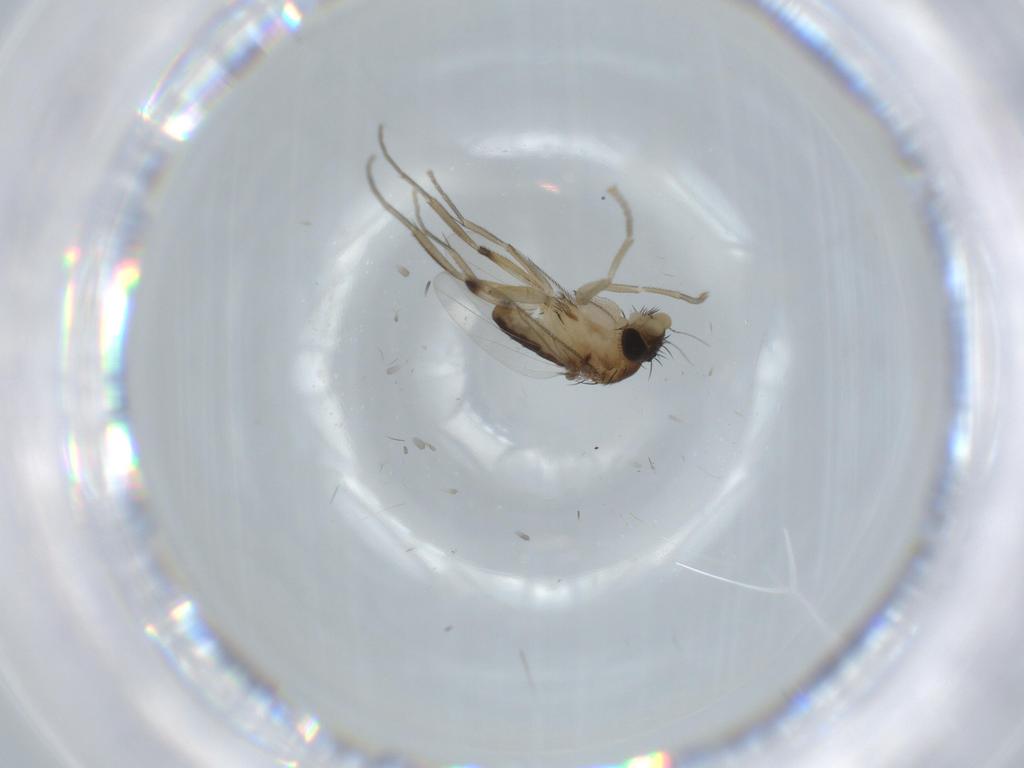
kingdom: Animalia
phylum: Arthropoda
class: Insecta
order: Diptera
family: Phoridae
